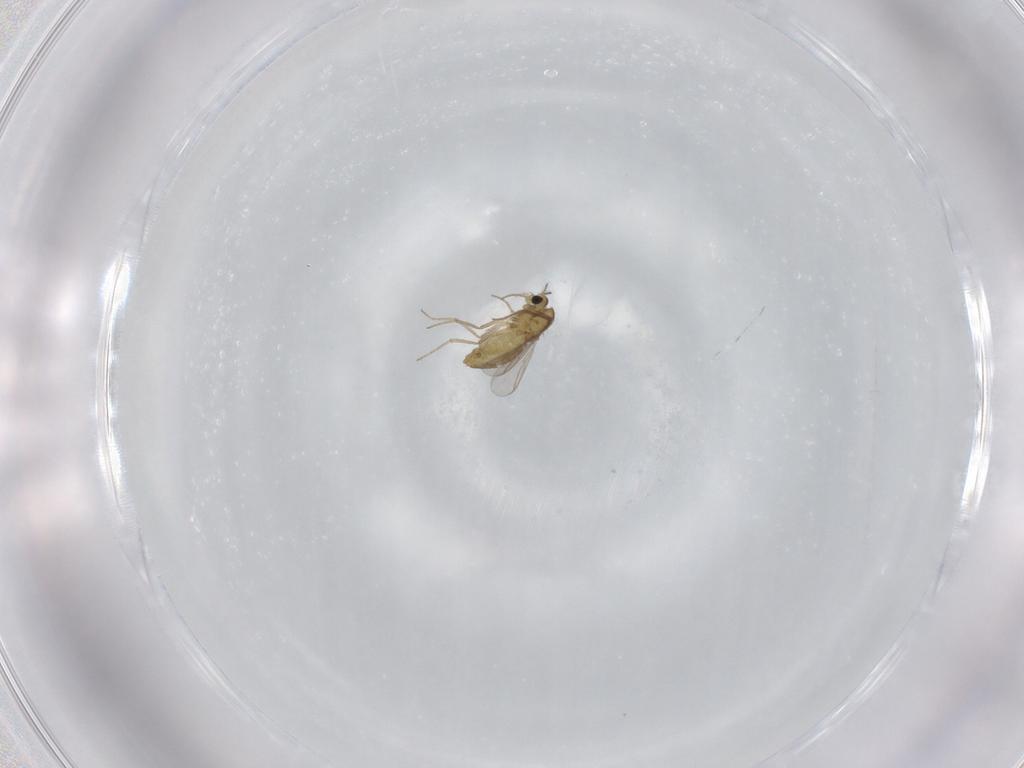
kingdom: Animalia
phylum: Arthropoda
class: Insecta
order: Diptera
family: Chironomidae
